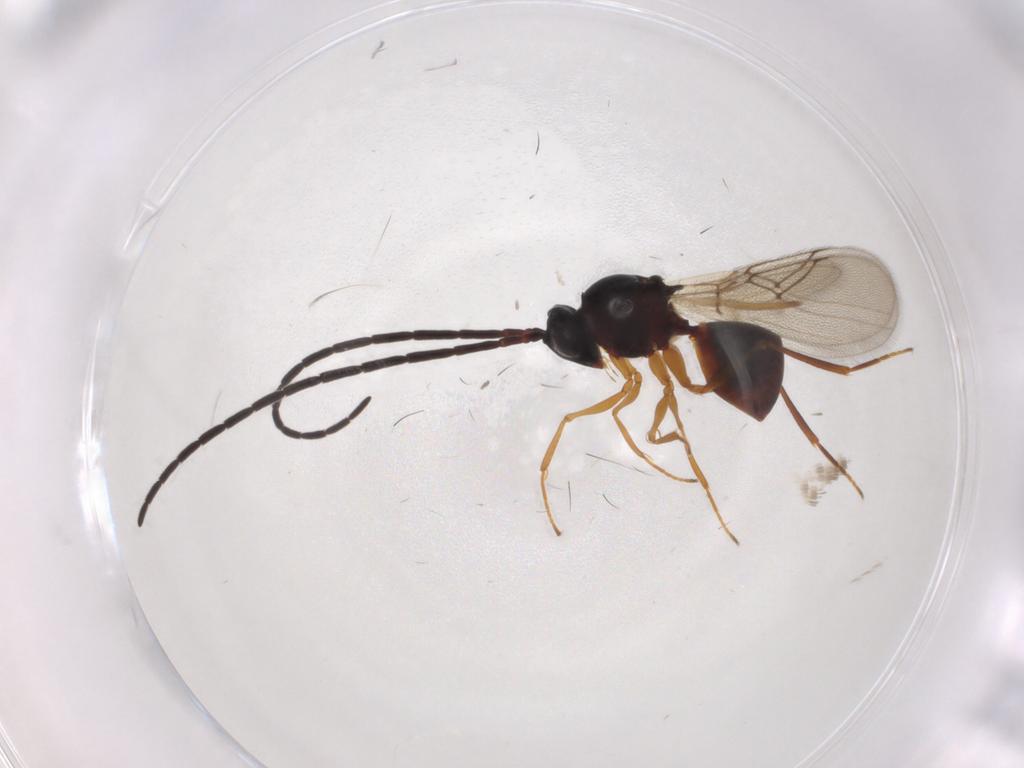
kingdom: Animalia
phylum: Arthropoda
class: Insecta
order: Hymenoptera
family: Figitidae
